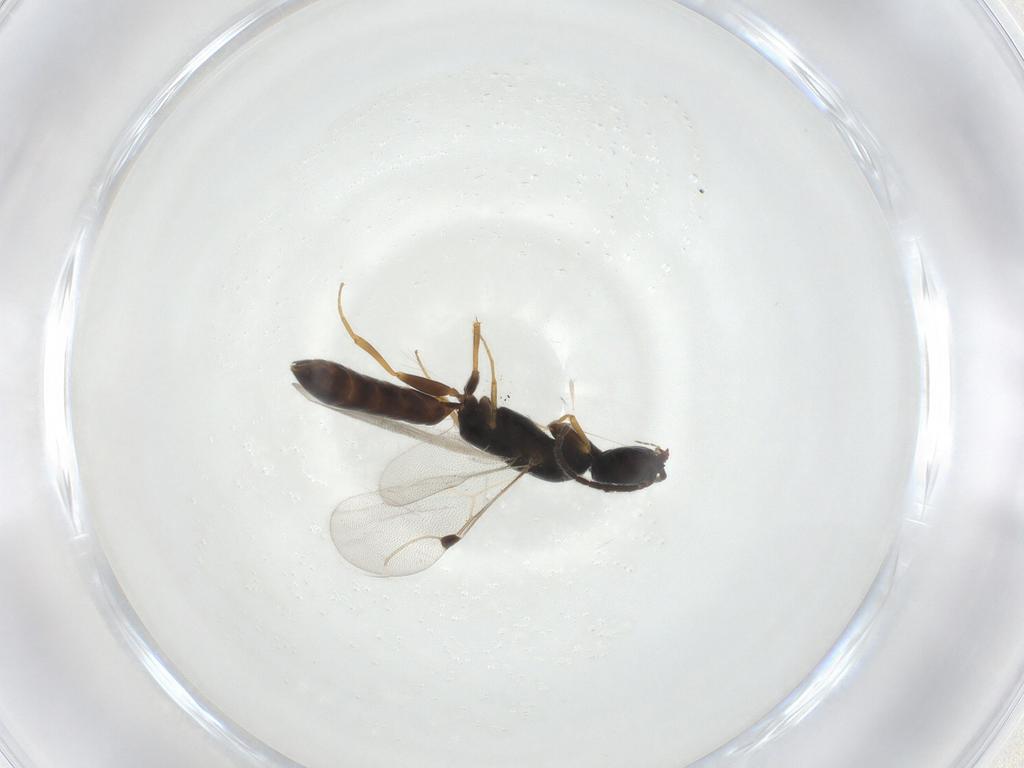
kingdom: Animalia
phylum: Arthropoda
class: Insecta
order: Hymenoptera
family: Bethylidae
